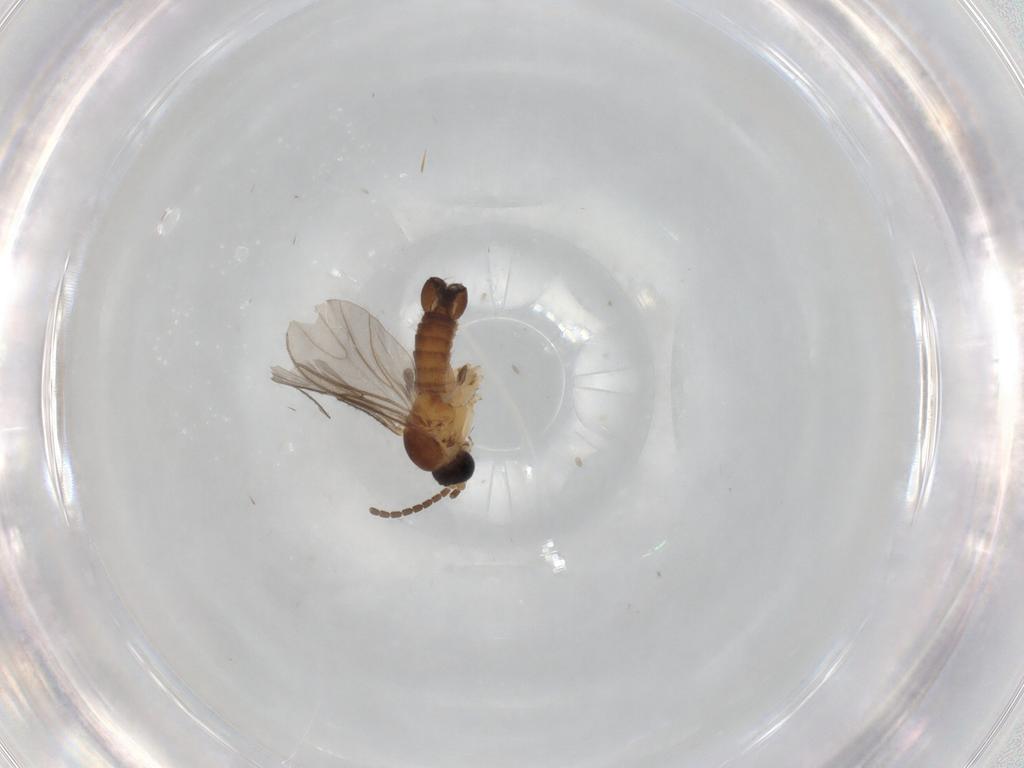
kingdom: Animalia
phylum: Arthropoda
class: Insecta
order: Diptera
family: Sciaridae
